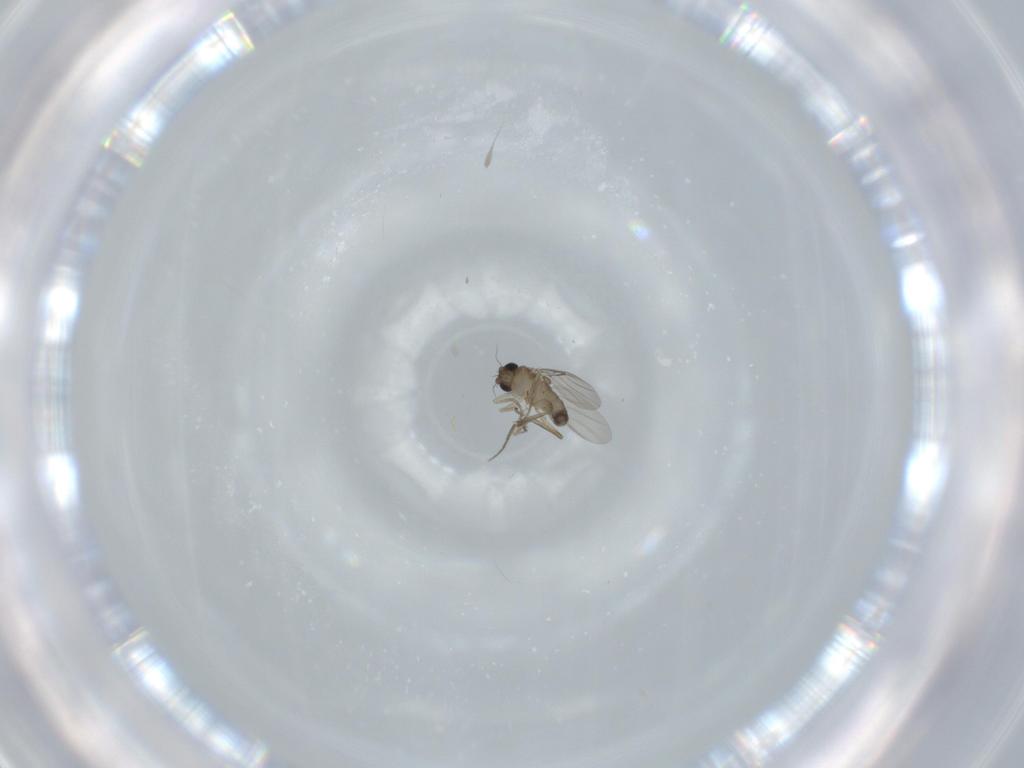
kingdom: Animalia
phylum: Arthropoda
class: Insecta
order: Diptera
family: Phoridae
